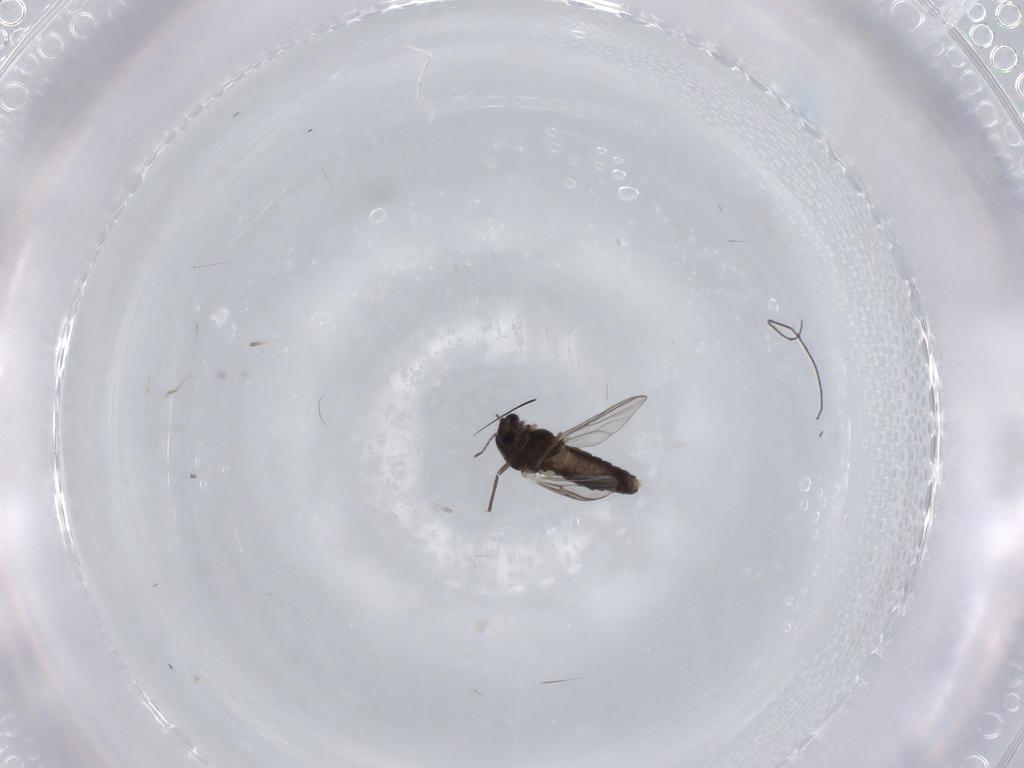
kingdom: Animalia
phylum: Arthropoda
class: Insecta
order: Diptera
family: Chironomidae
